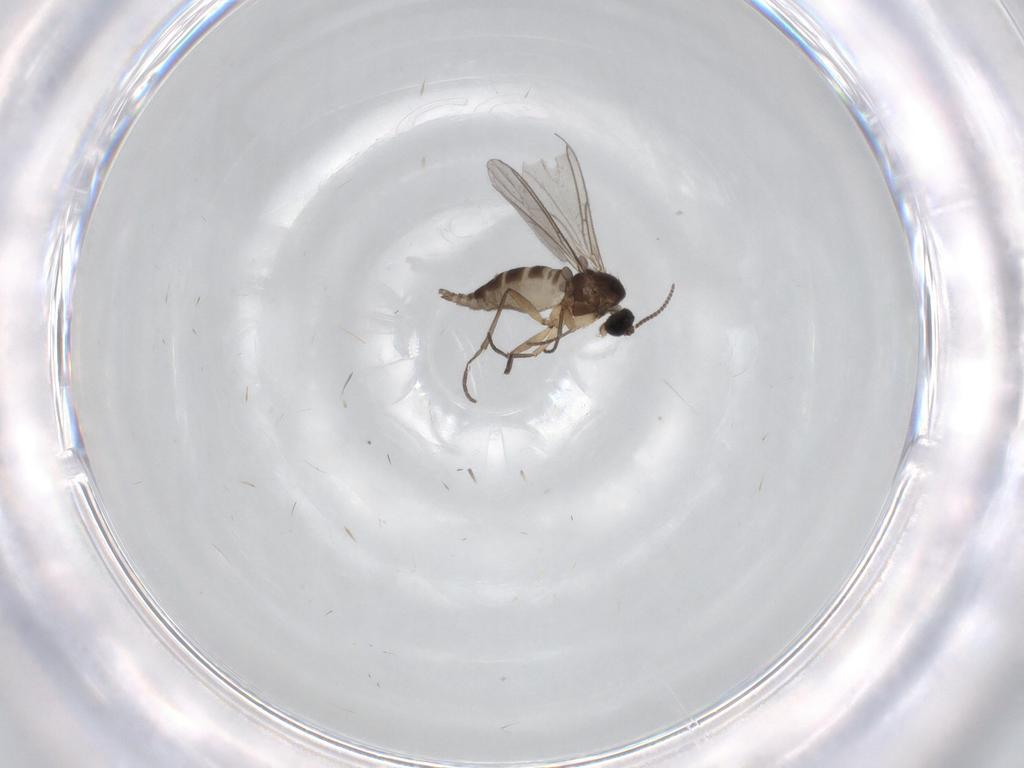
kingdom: Animalia
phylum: Arthropoda
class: Insecta
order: Diptera
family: Sciaridae
